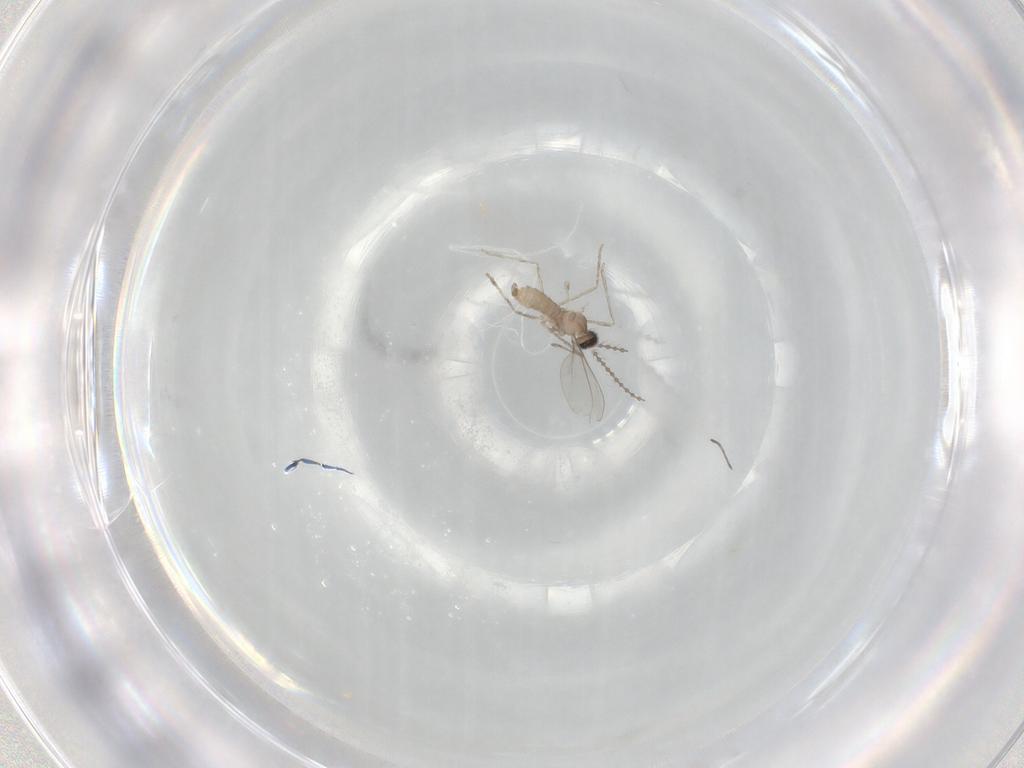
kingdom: Animalia
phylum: Arthropoda
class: Insecta
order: Diptera
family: Cecidomyiidae
